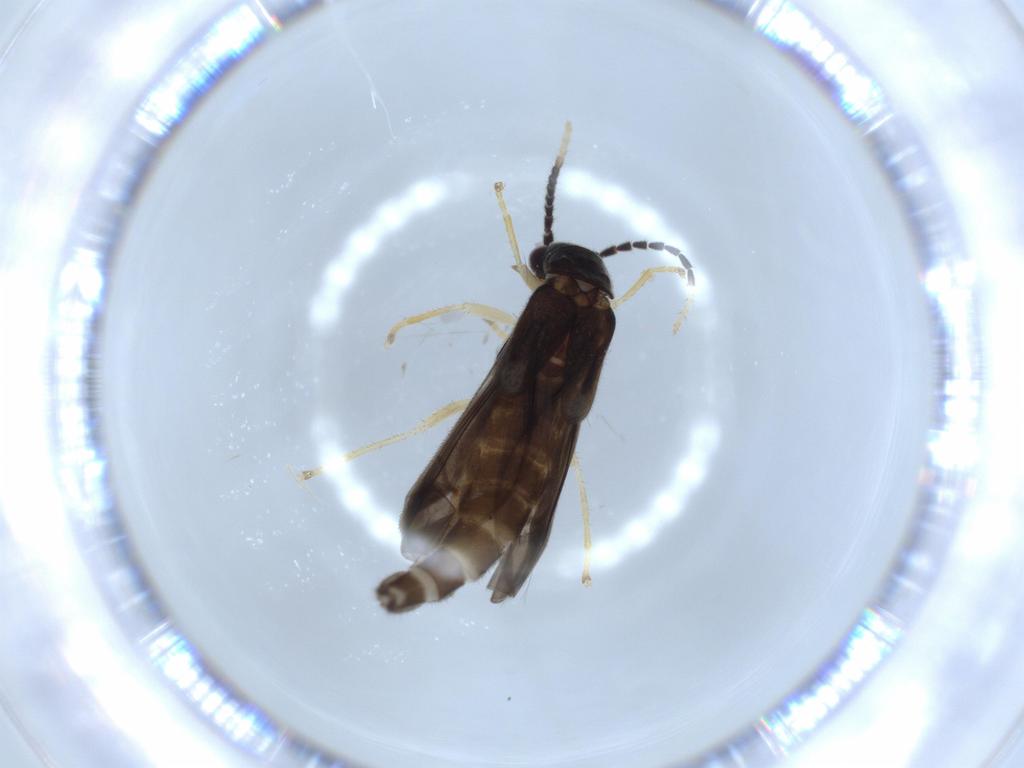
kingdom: Animalia
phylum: Arthropoda
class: Insecta
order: Coleoptera
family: Cantharidae
